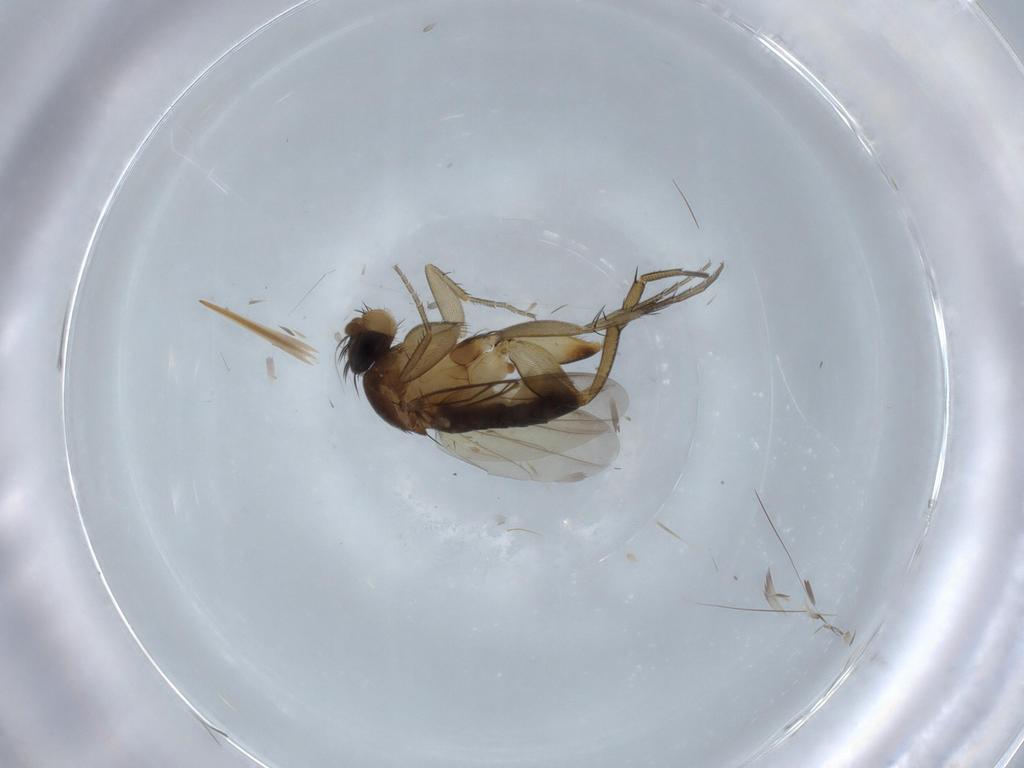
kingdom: Animalia
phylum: Arthropoda
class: Insecta
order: Diptera
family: Phoridae
